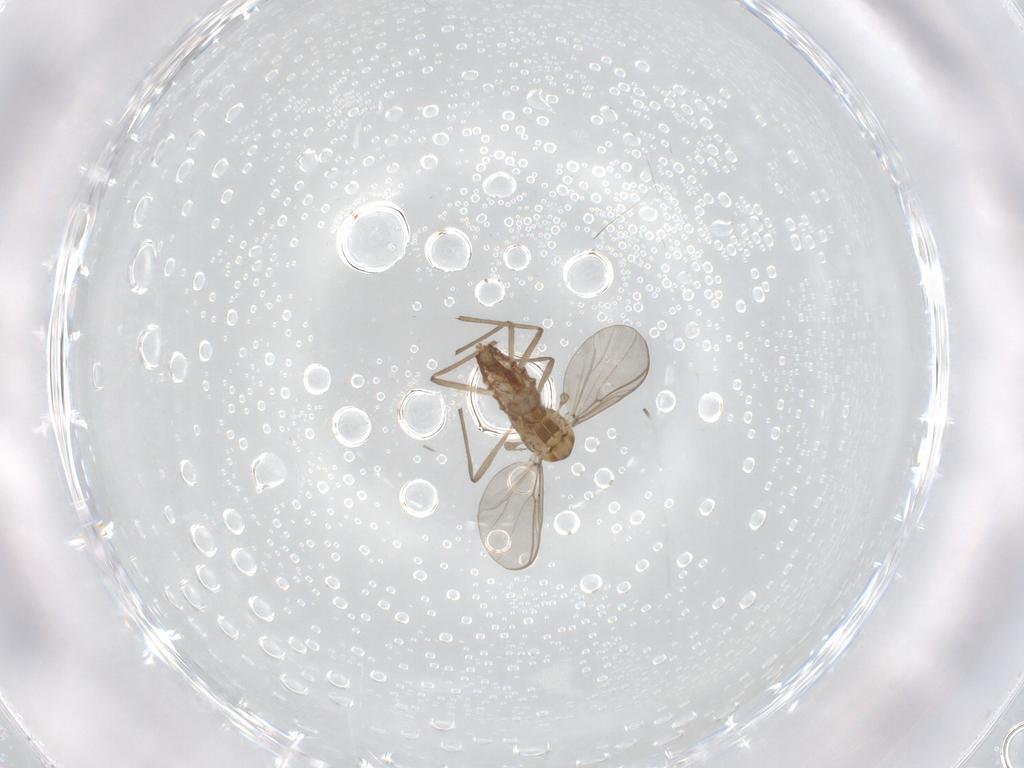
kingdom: Animalia
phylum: Arthropoda
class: Insecta
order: Diptera
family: Chironomidae
